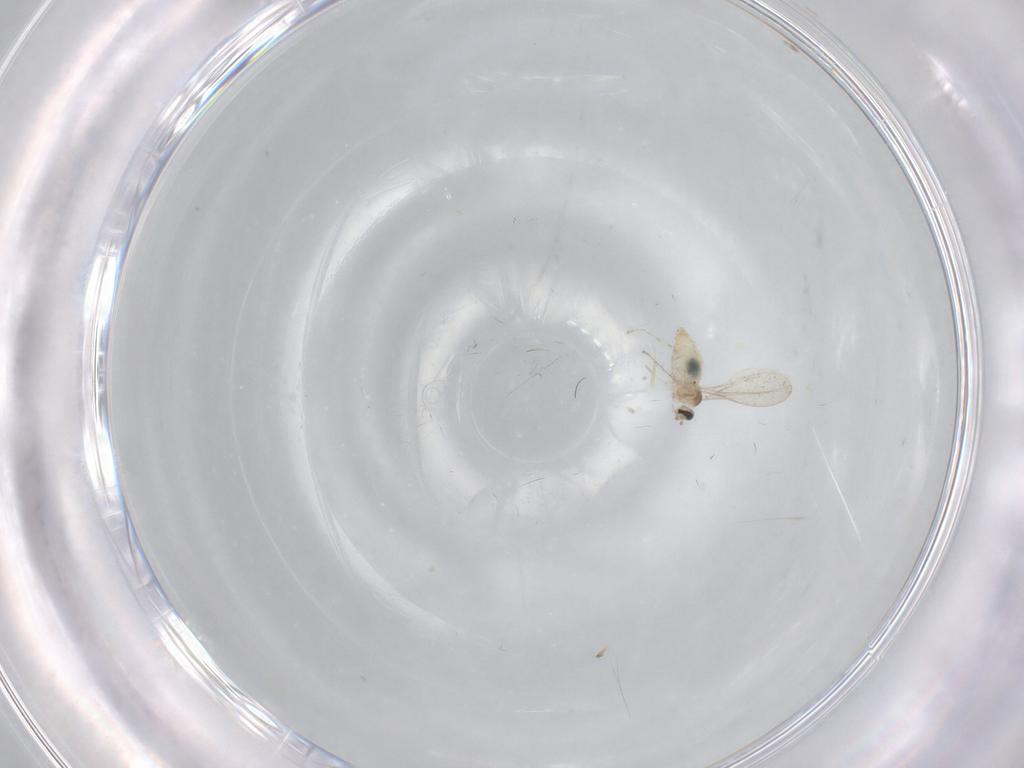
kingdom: Animalia
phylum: Arthropoda
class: Insecta
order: Diptera
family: Cecidomyiidae
